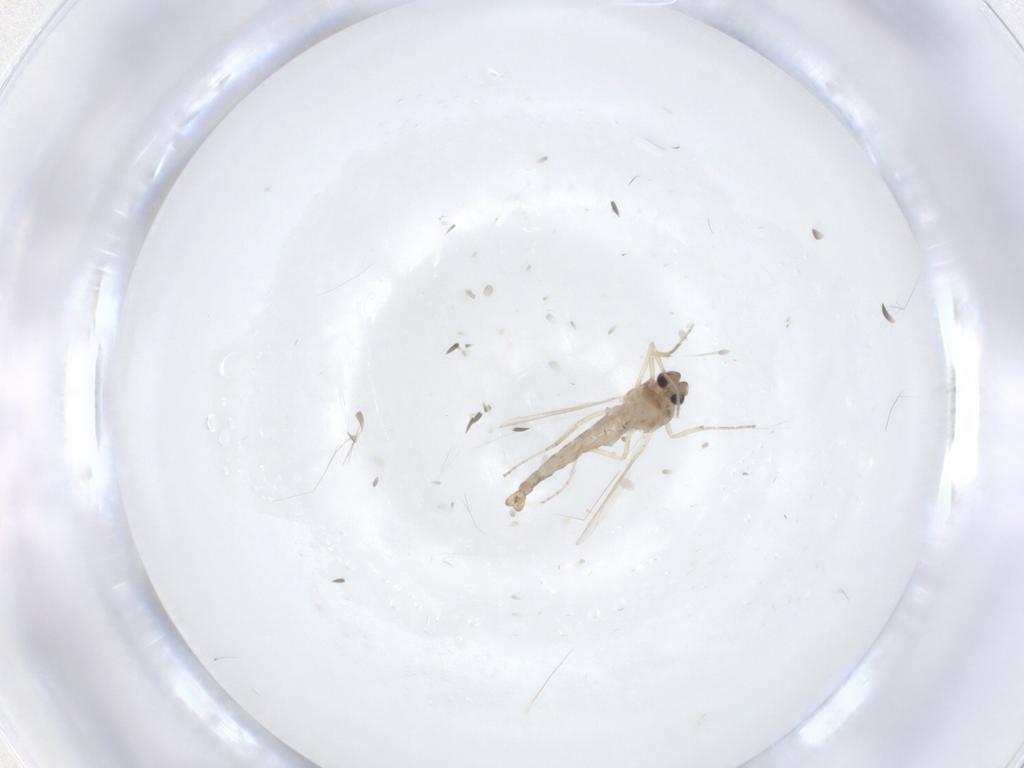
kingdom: Animalia
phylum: Arthropoda
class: Insecta
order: Diptera
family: Ceratopogonidae
